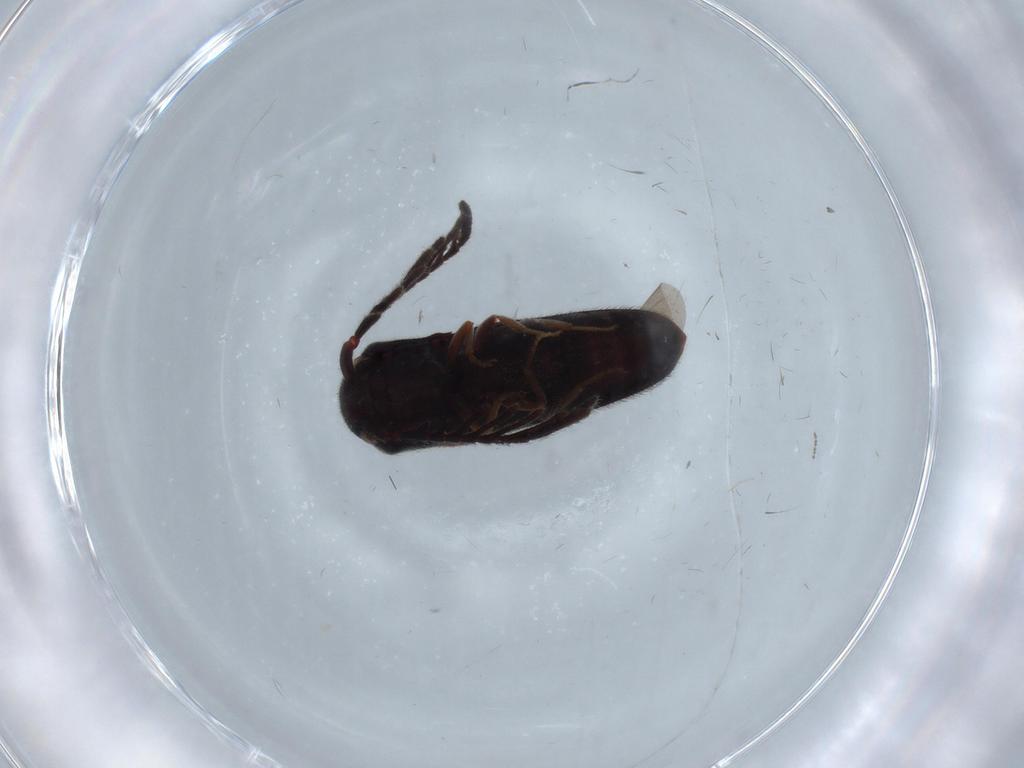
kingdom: Animalia
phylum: Arthropoda
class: Insecta
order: Coleoptera
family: Eucnemidae
